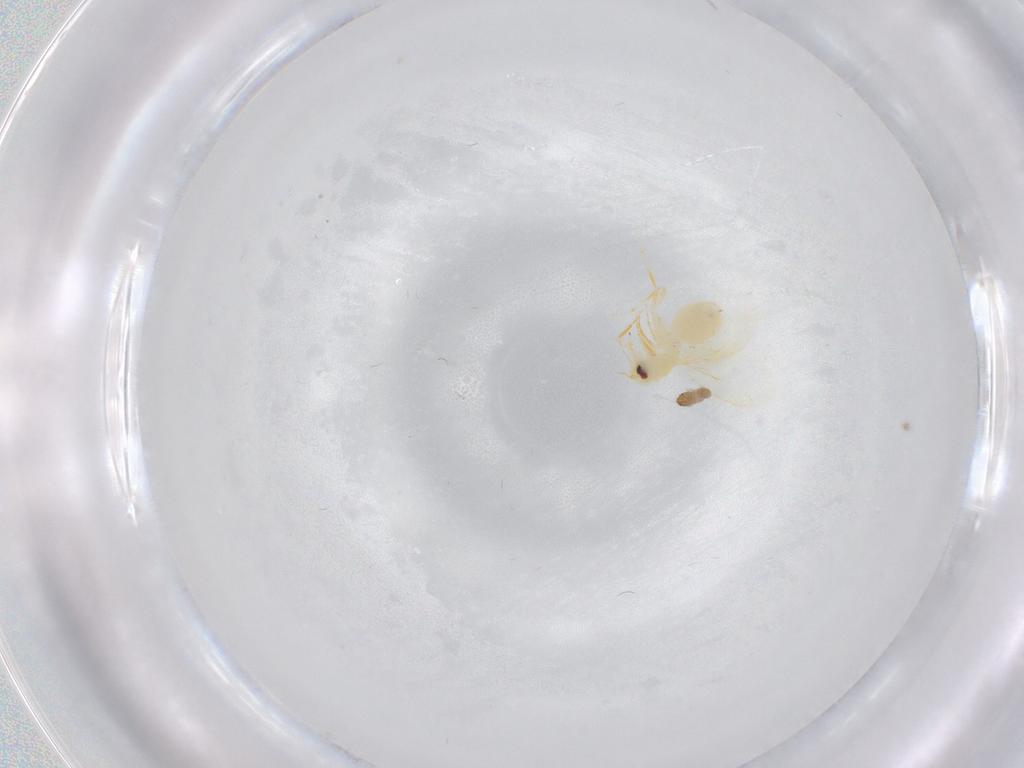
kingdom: Animalia
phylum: Arthropoda
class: Insecta
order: Hemiptera
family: Aleyrodidae
